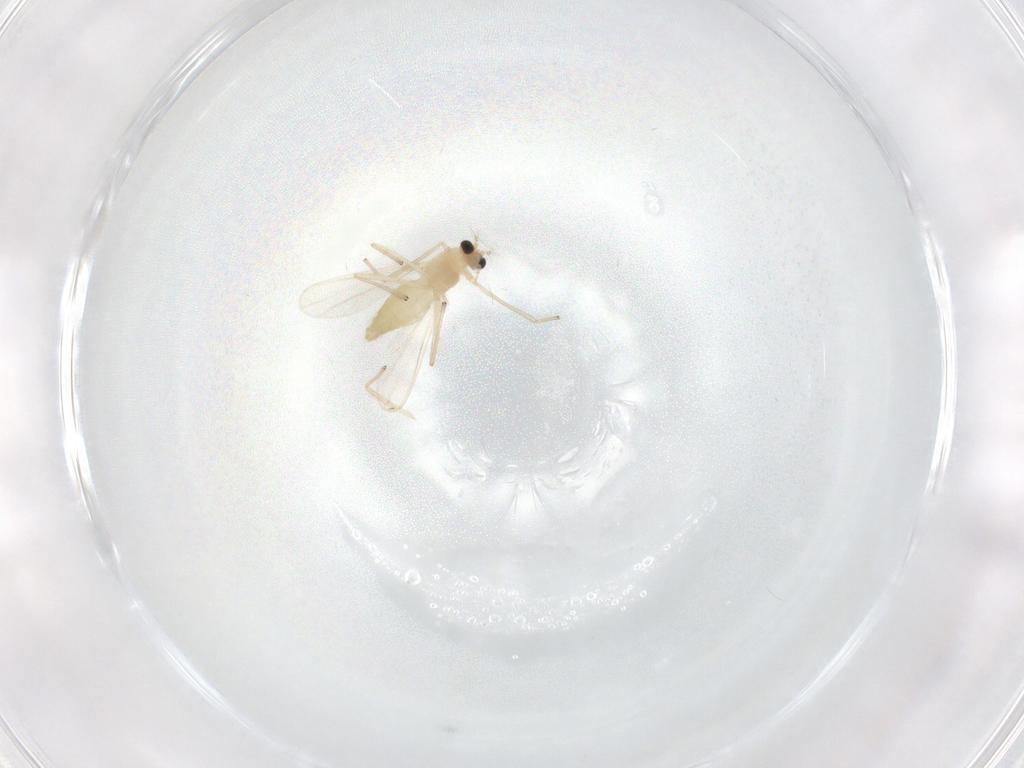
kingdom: Animalia
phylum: Arthropoda
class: Insecta
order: Diptera
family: Chironomidae
